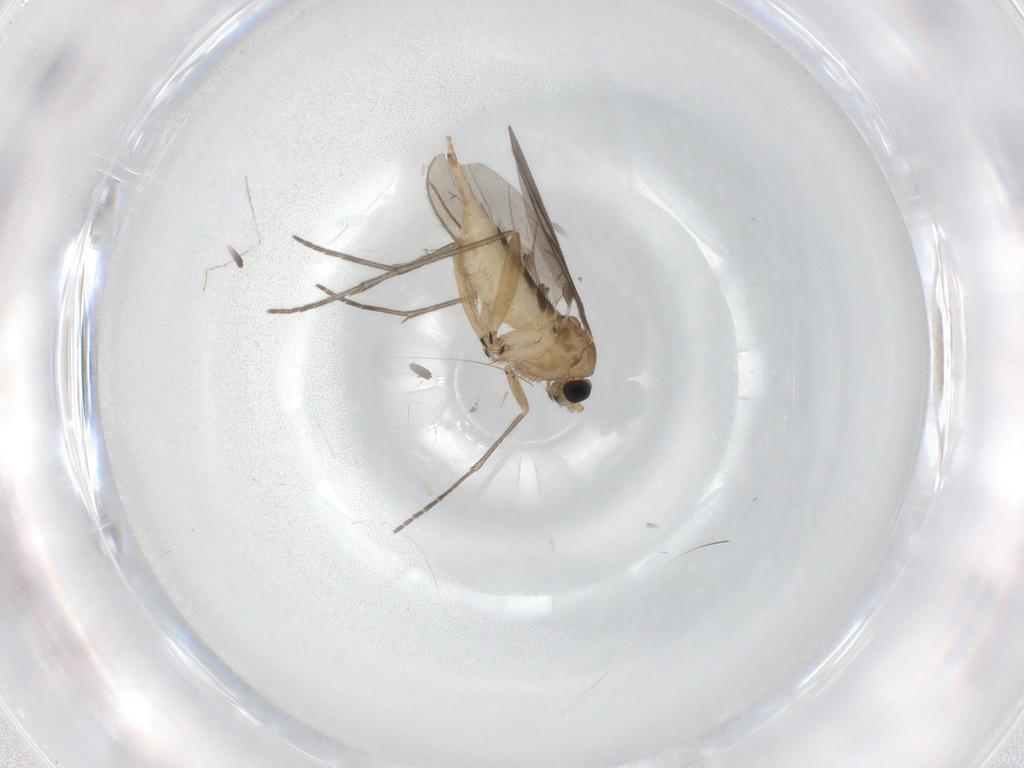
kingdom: Animalia
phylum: Arthropoda
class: Insecta
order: Diptera
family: Sciaridae
